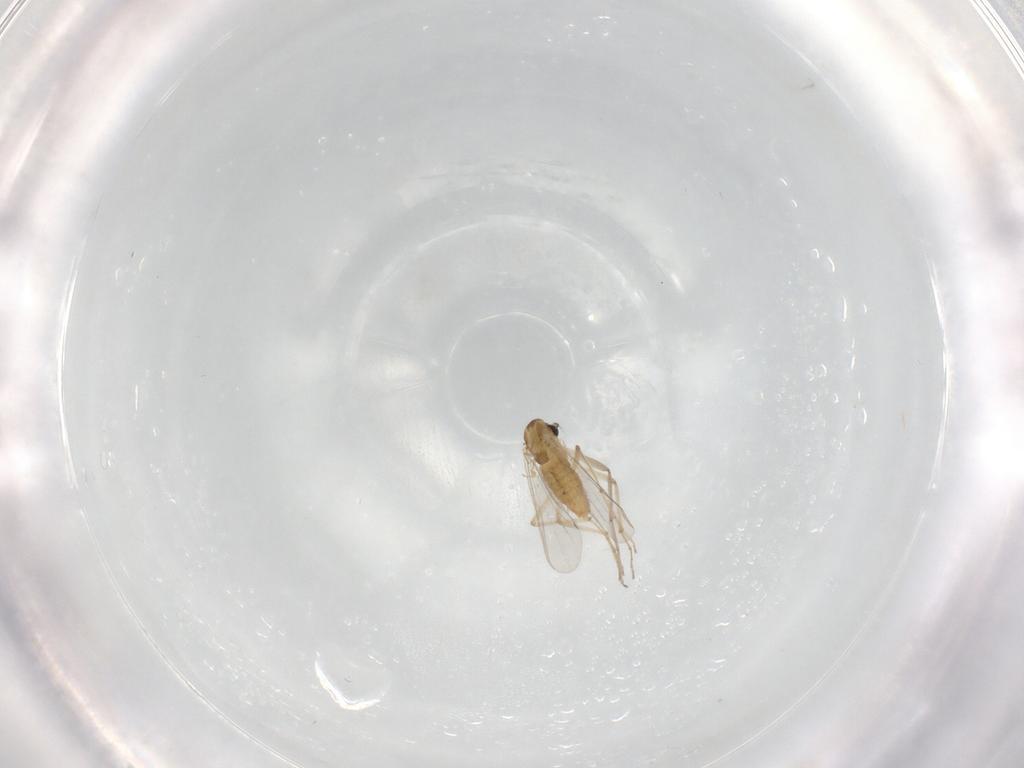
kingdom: Animalia
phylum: Arthropoda
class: Insecta
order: Diptera
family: Chironomidae
